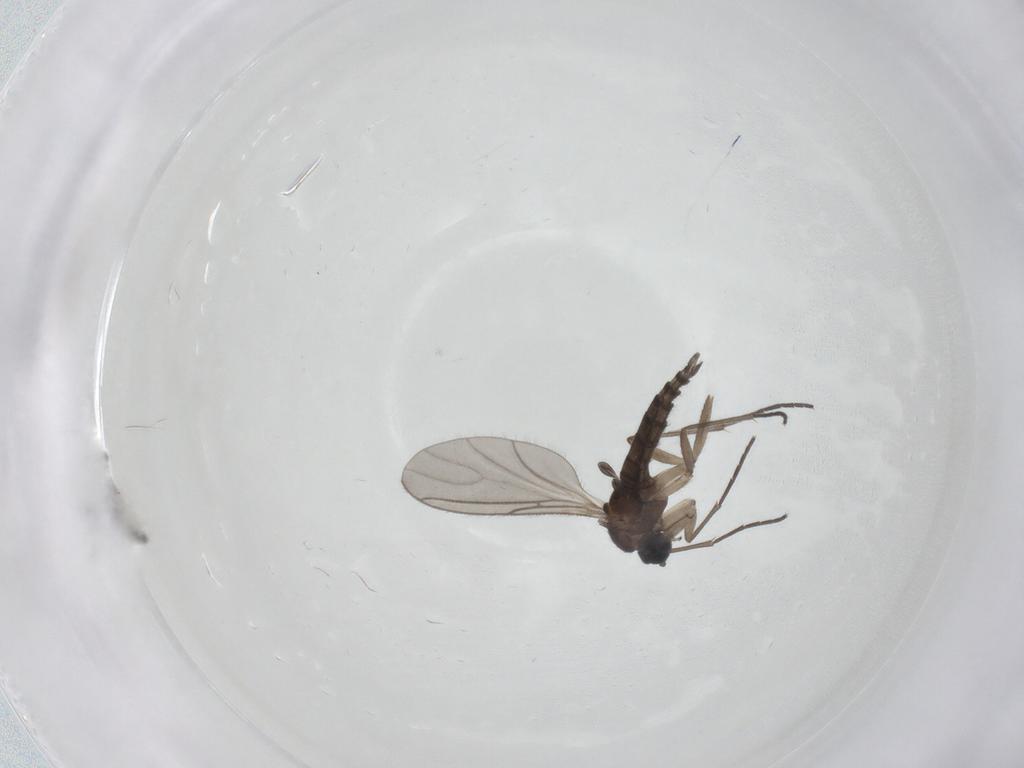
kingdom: Animalia
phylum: Arthropoda
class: Insecta
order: Diptera
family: Sciaridae
